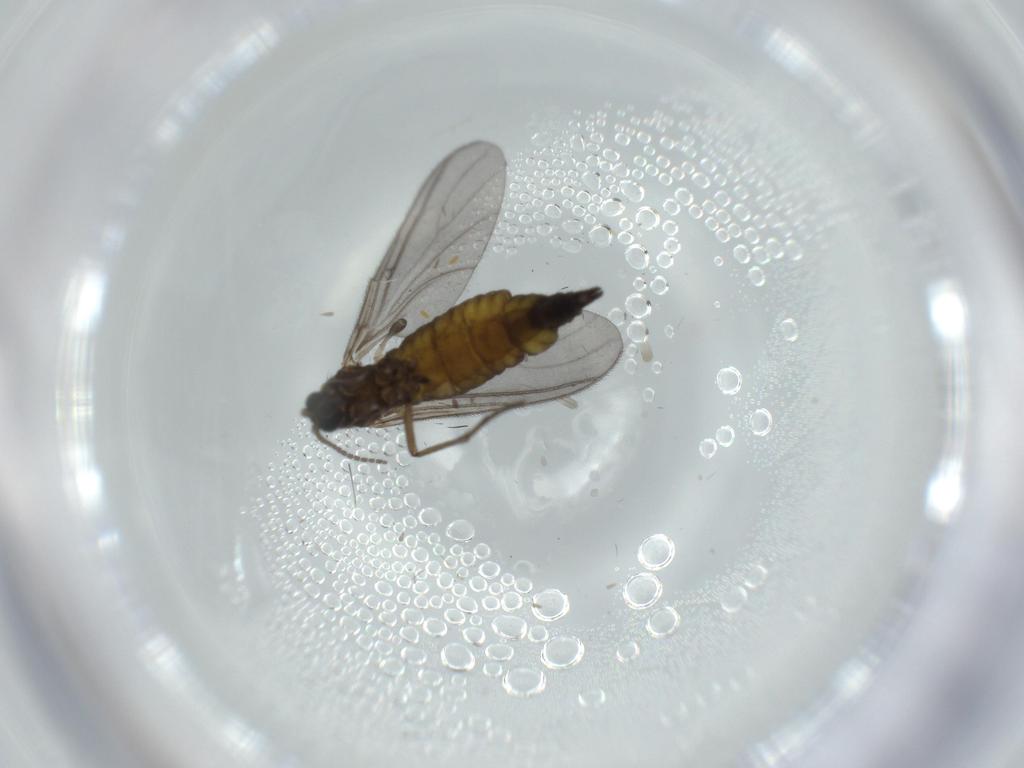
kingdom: Animalia
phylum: Arthropoda
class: Insecta
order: Diptera
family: Sciaridae
